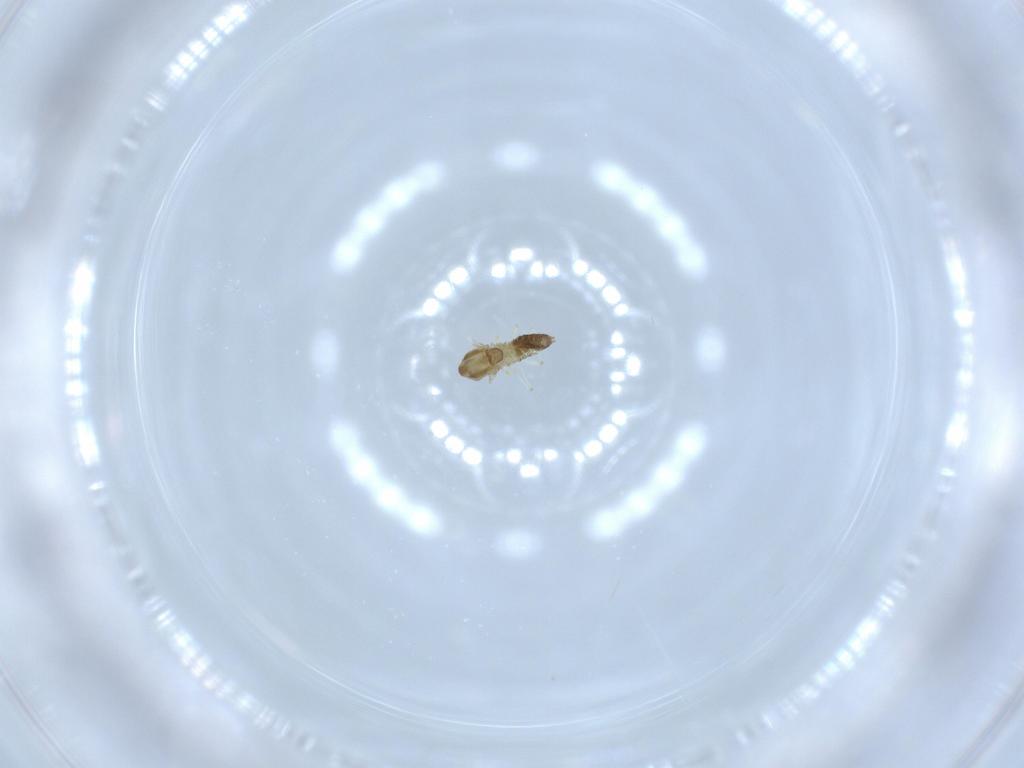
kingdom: Animalia
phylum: Arthropoda
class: Insecta
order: Diptera
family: Chironomidae
